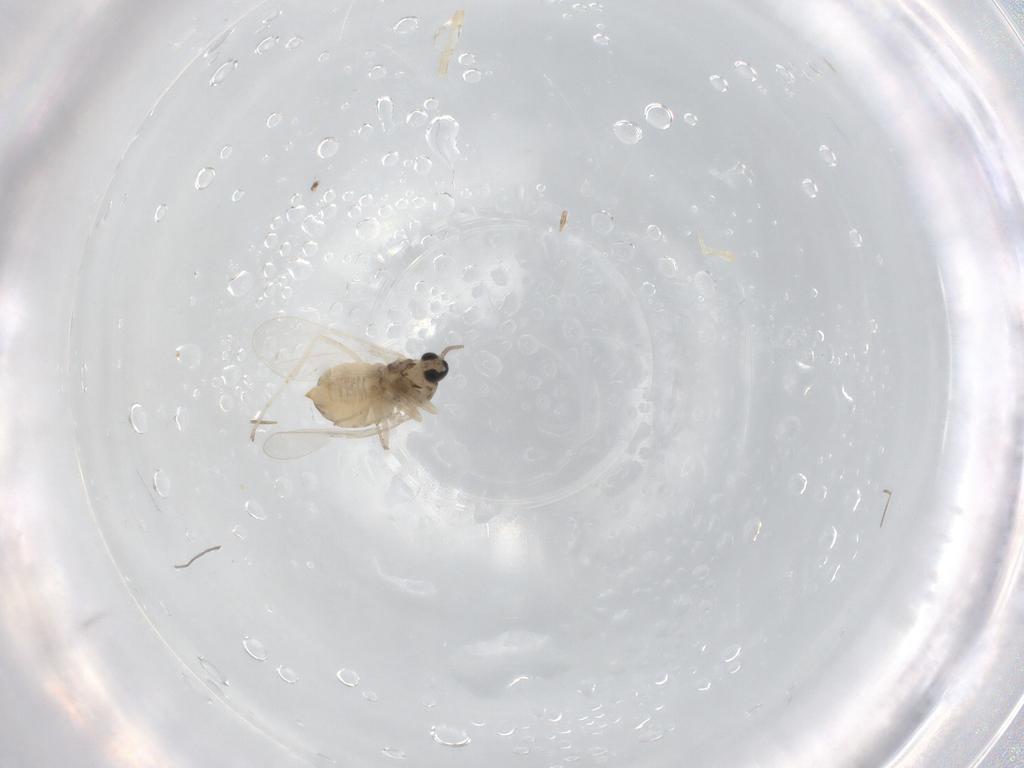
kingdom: Animalia
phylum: Arthropoda
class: Insecta
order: Diptera
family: Cecidomyiidae
